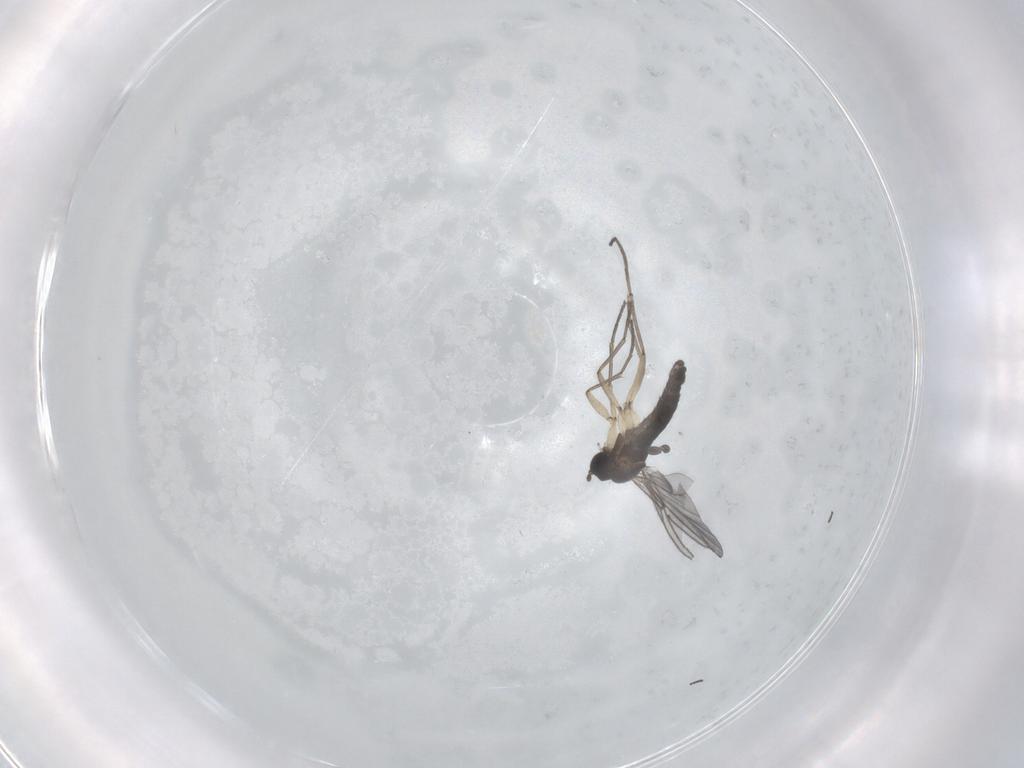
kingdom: Animalia
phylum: Arthropoda
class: Insecta
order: Diptera
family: Sciaridae
